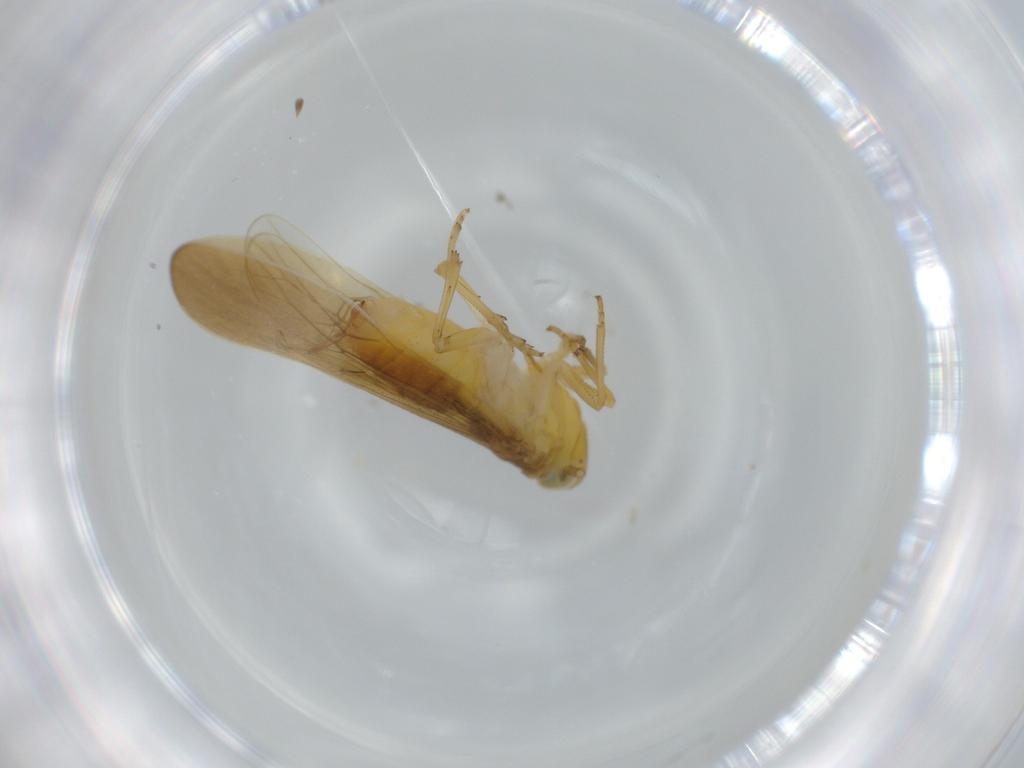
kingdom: Animalia
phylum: Arthropoda
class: Insecta
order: Hemiptera
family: Delphacidae
